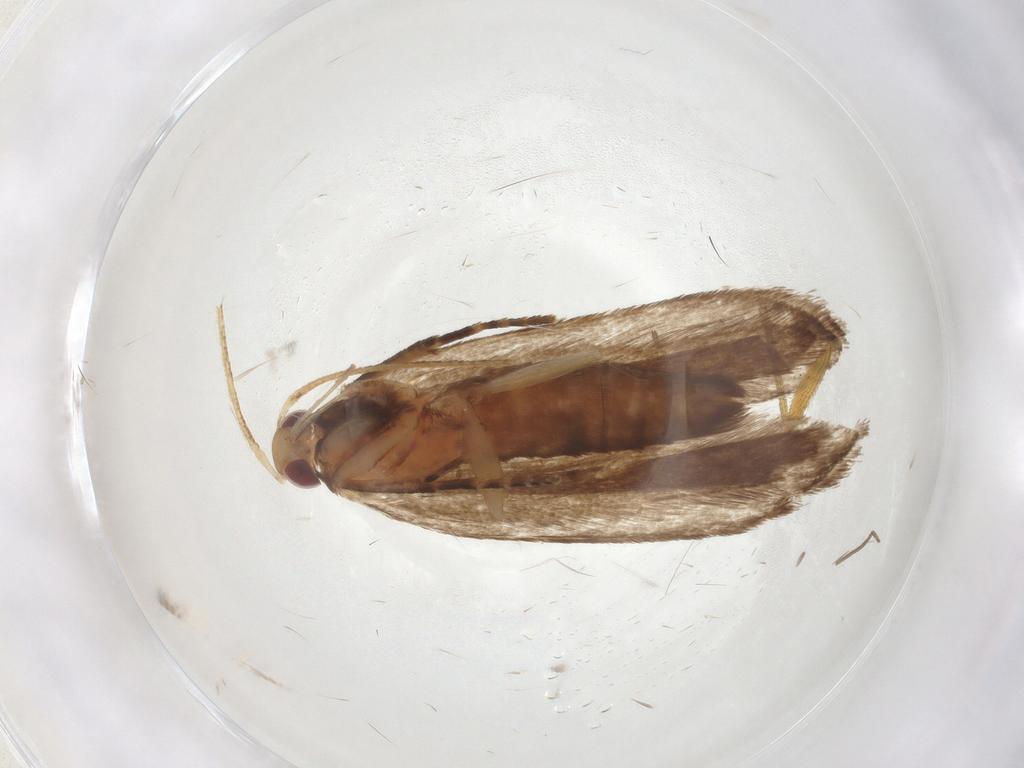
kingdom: Animalia
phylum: Arthropoda
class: Insecta
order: Lepidoptera
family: Gelechiidae
